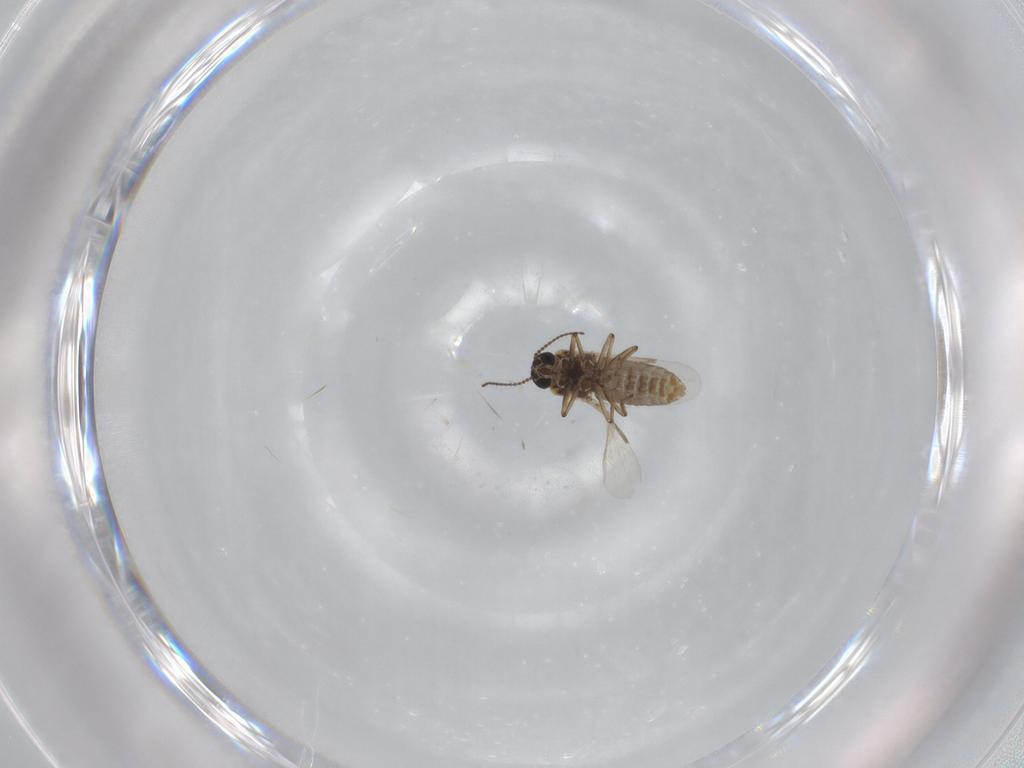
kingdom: Animalia
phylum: Arthropoda
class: Insecta
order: Diptera
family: Ceratopogonidae
